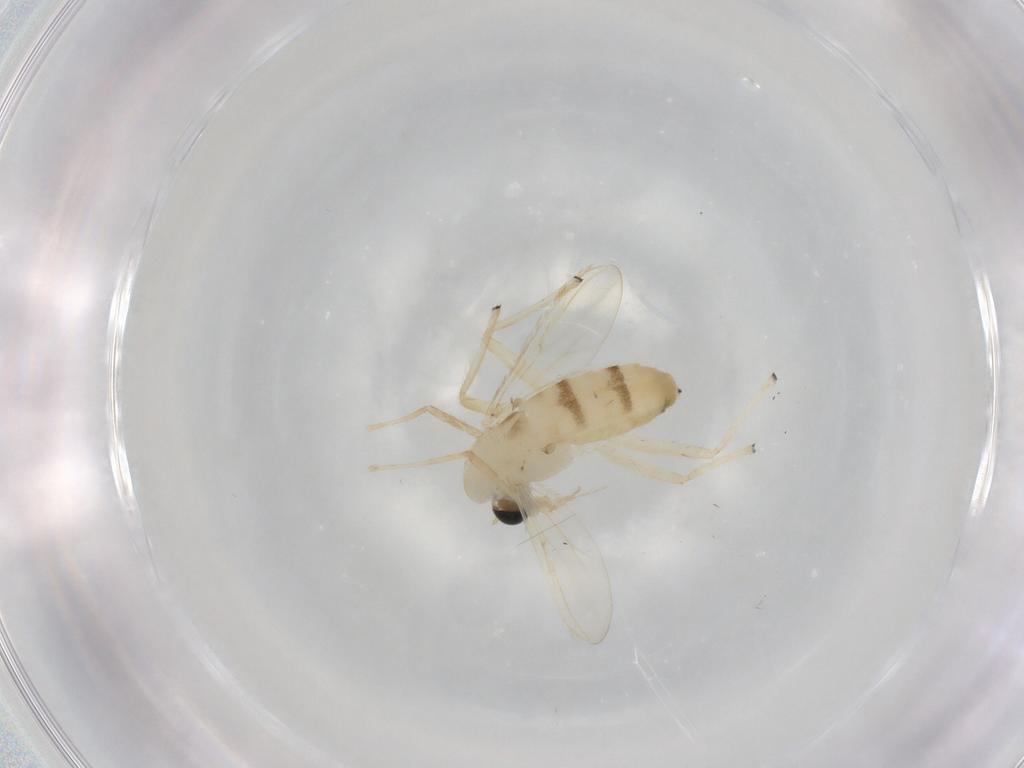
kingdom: Animalia
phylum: Arthropoda
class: Insecta
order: Diptera
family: Chironomidae
